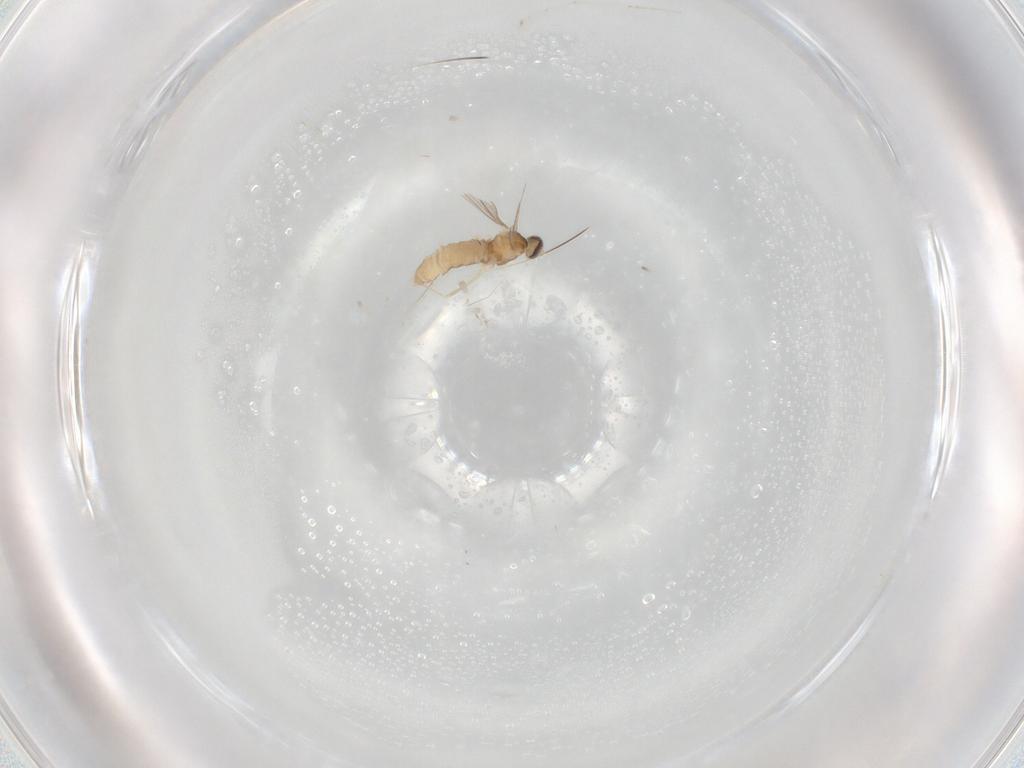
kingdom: Animalia
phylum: Arthropoda
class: Insecta
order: Diptera
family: Cecidomyiidae
